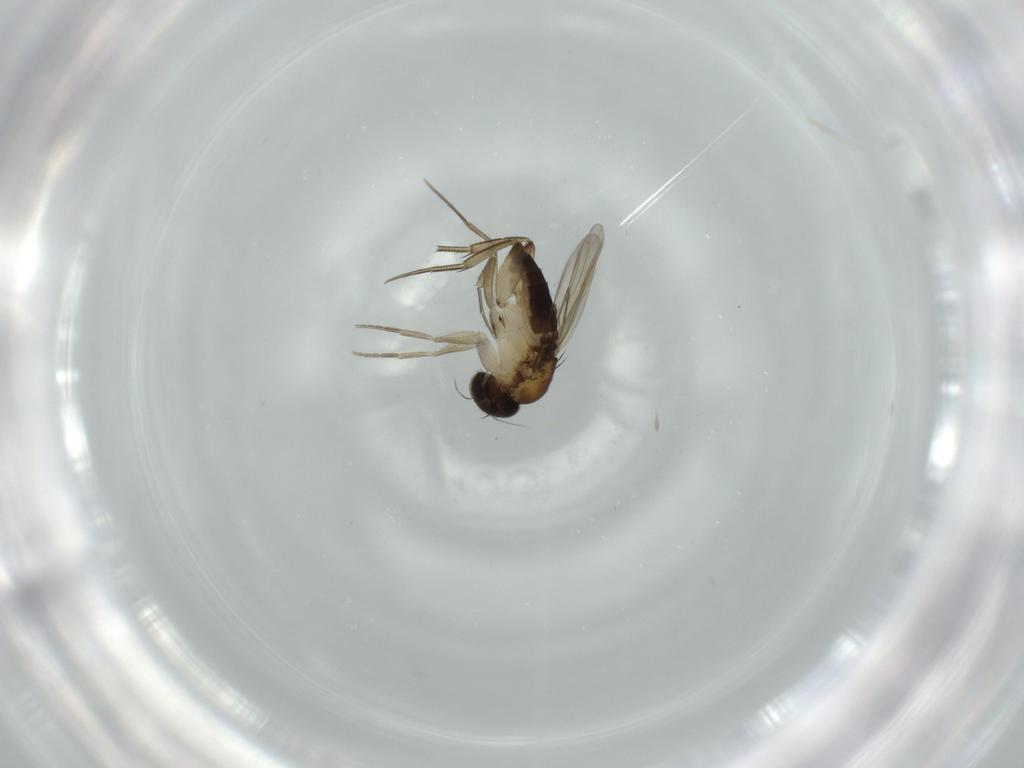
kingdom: Animalia
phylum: Arthropoda
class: Insecta
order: Diptera
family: Phoridae
